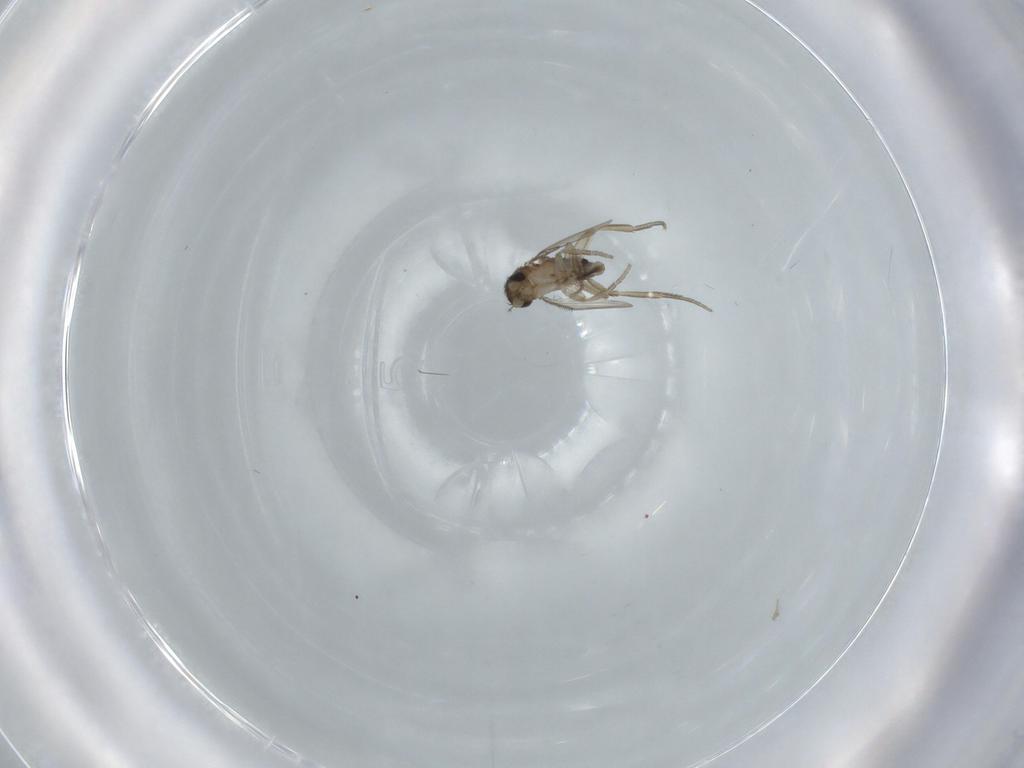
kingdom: Animalia
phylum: Arthropoda
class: Insecta
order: Diptera
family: Phoridae
